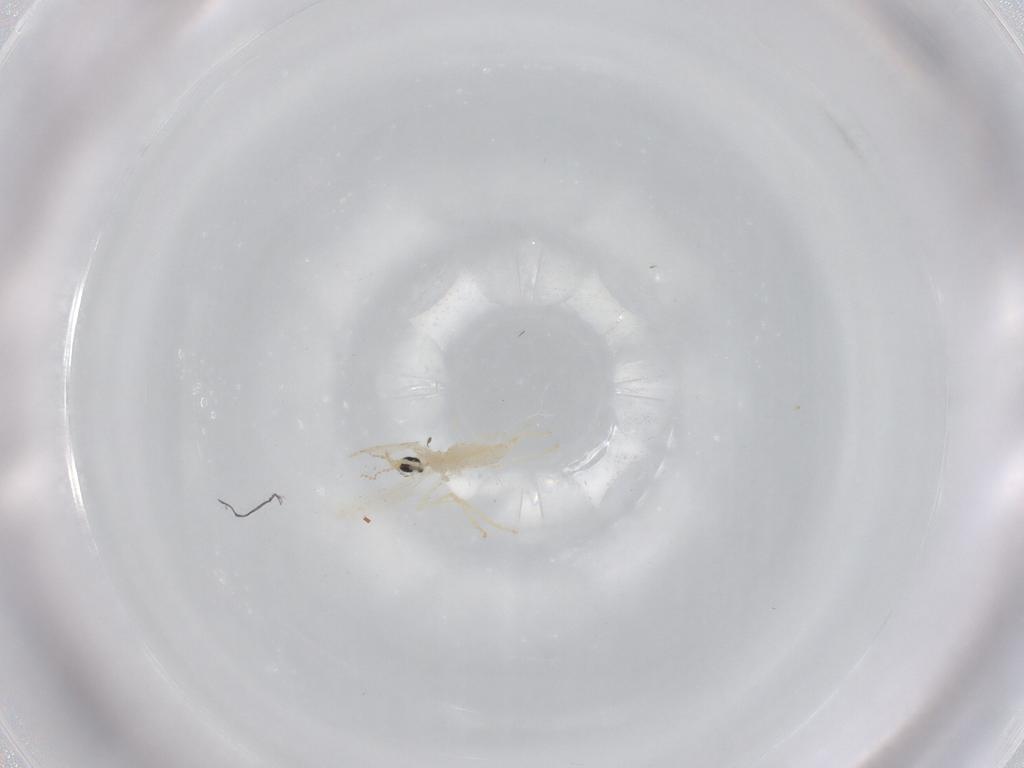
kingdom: Animalia
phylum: Arthropoda
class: Insecta
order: Diptera
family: Cecidomyiidae
